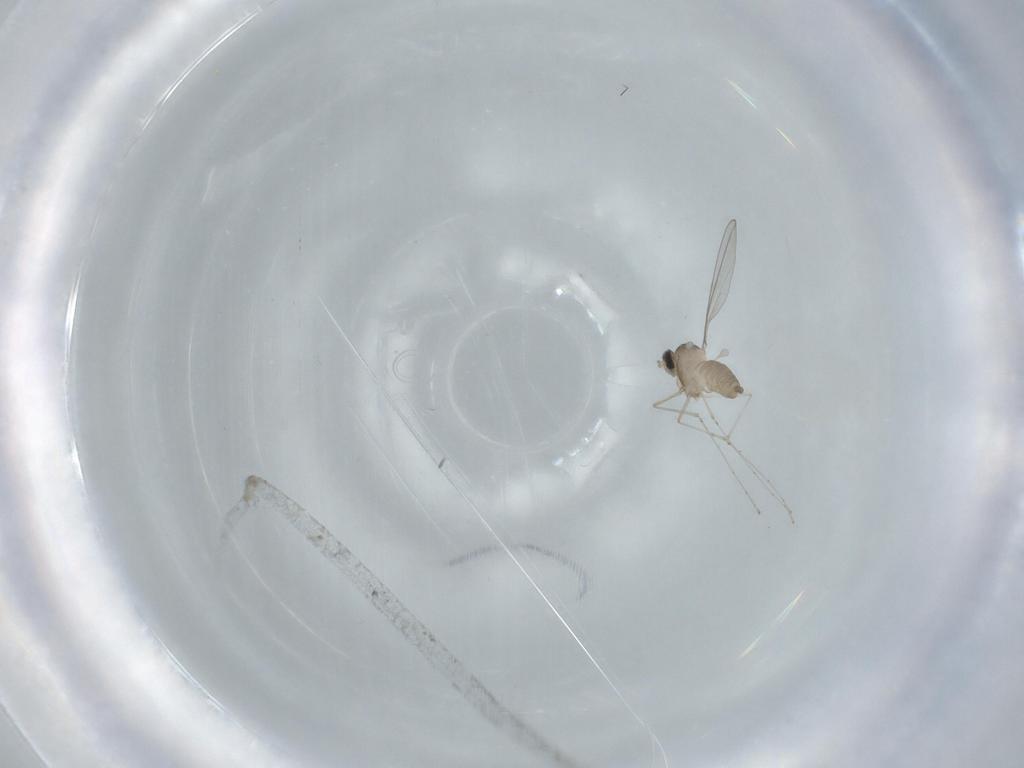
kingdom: Animalia
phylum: Arthropoda
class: Insecta
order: Diptera
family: Cecidomyiidae
